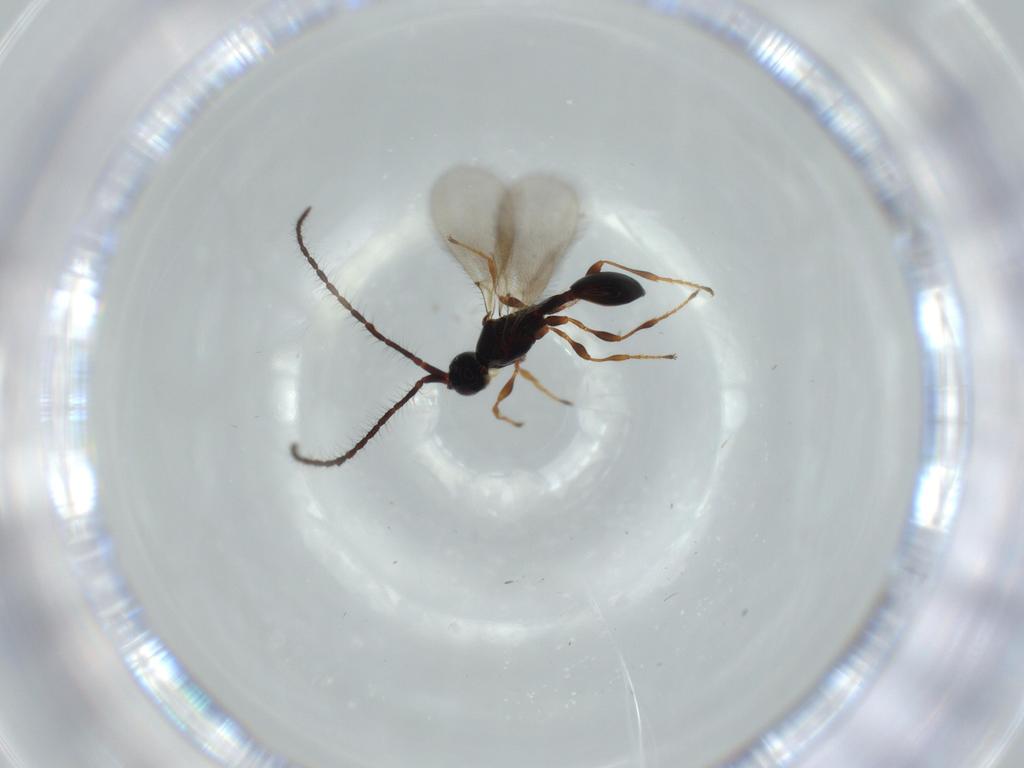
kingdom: Animalia
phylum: Arthropoda
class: Insecta
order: Hymenoptera
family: Diapriidae
